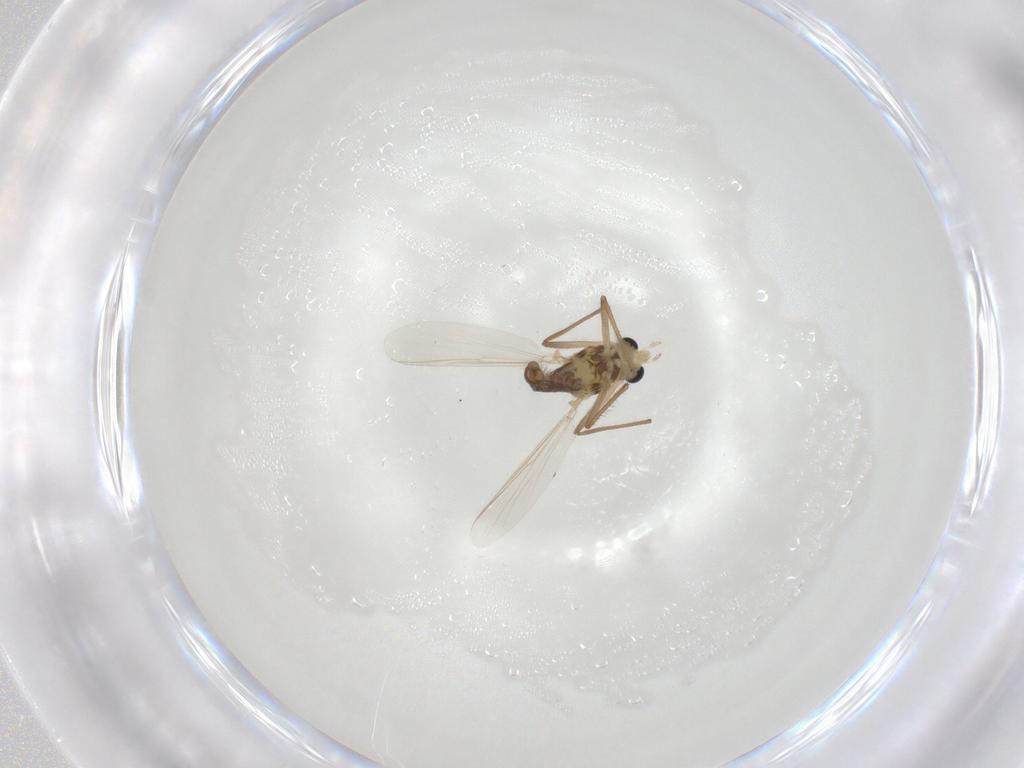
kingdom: Animalia
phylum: Arthropoda
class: Insecta
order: Diptera
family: Chironomidae
